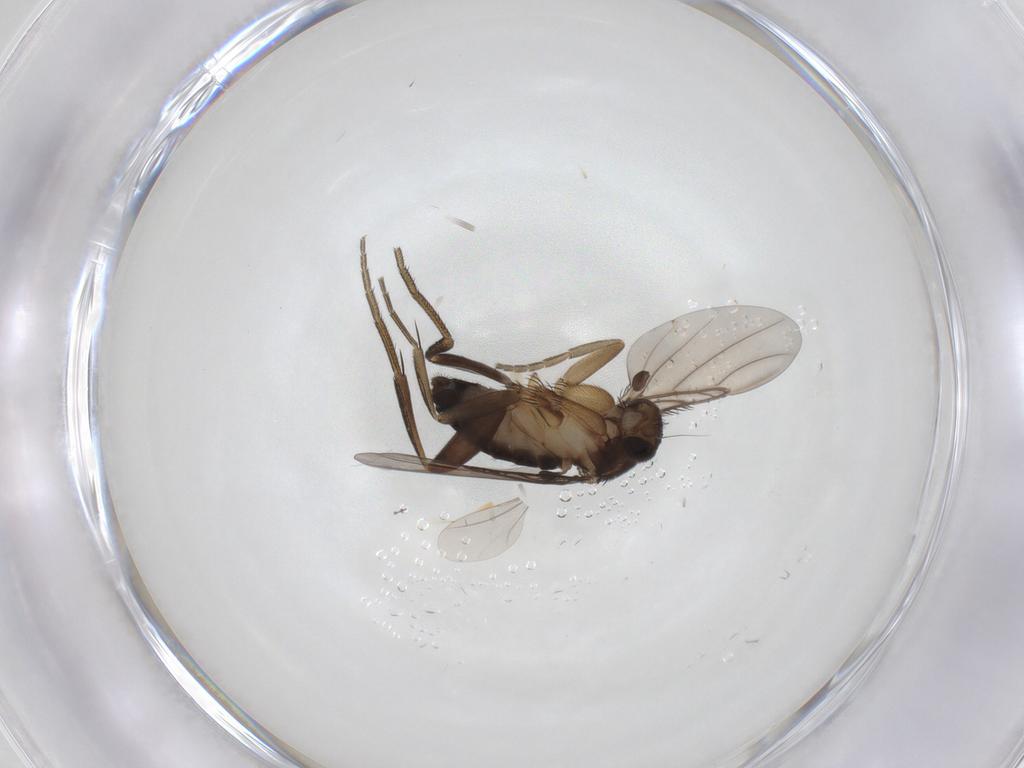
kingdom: Animalia
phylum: Arthropoda
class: Insecta
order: Diptera
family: Phoridae
